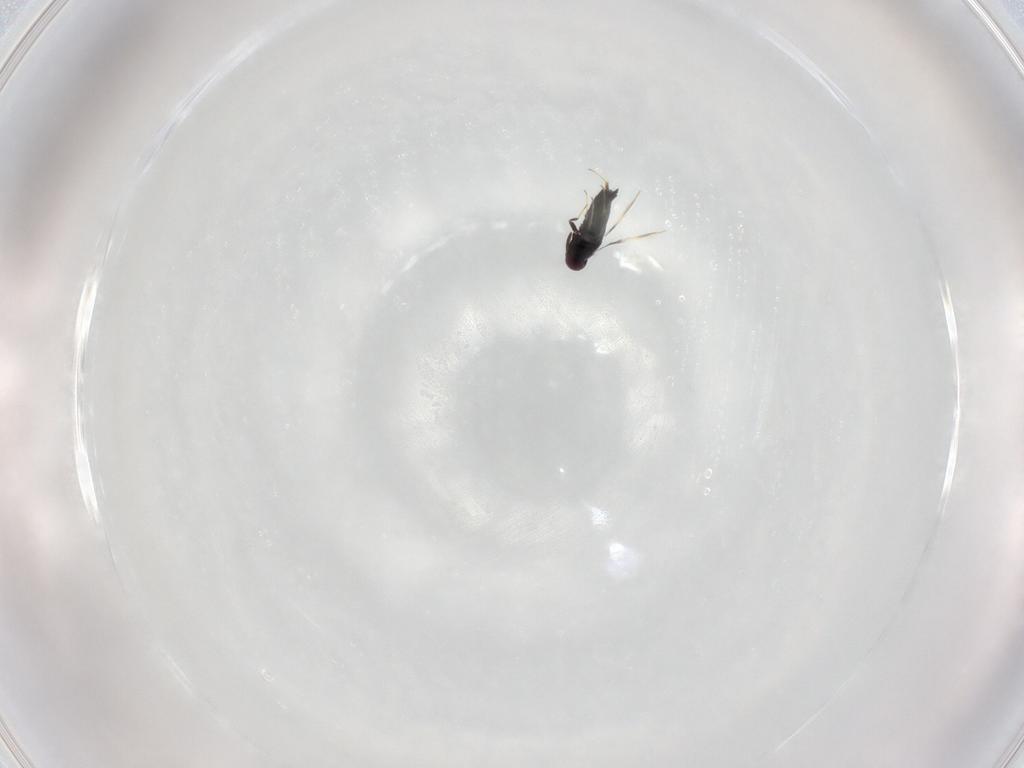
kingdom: Animalia
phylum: Arthropoda
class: Insecta
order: Hymenoptera
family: Signiphoridae
